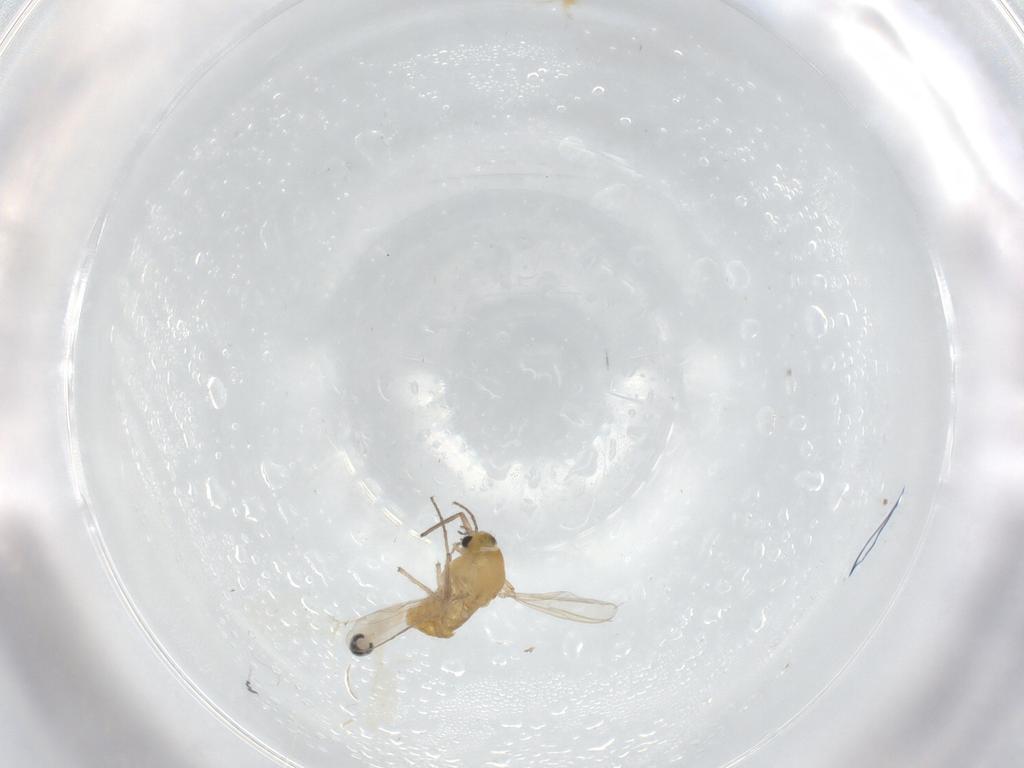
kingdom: Animalia
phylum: Arthropoda
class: Insecta
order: Diptera
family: Chironomidae
